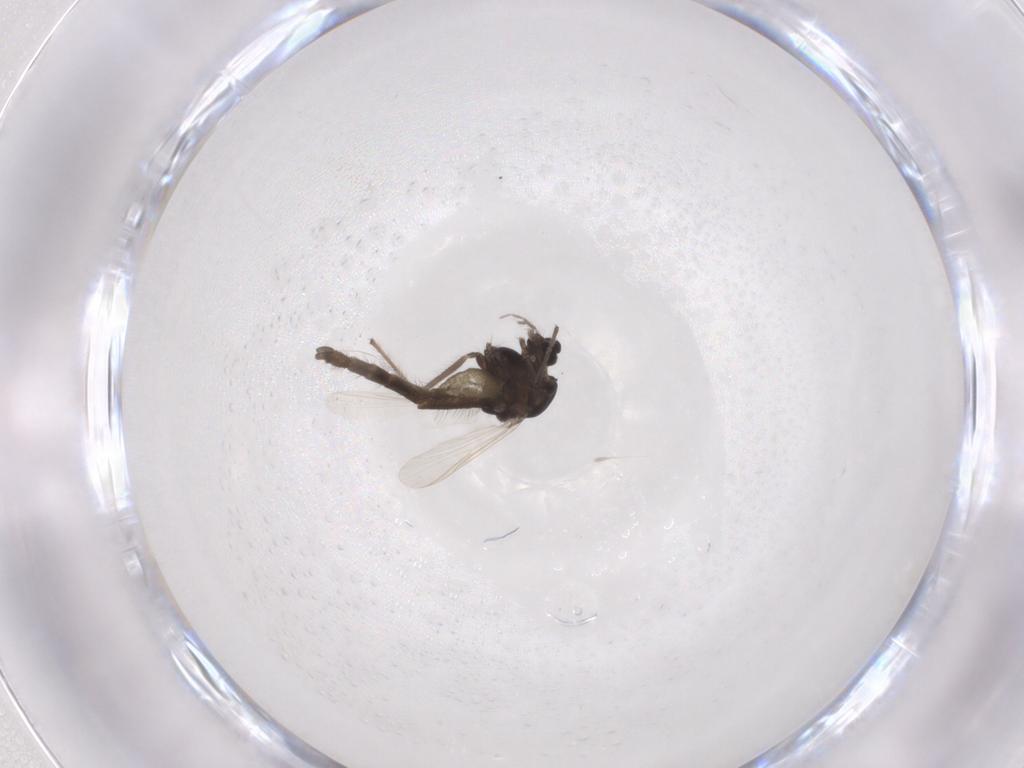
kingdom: Animalia
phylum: Arthropoda
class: Insecta
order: Diptera
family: Chironomidae
